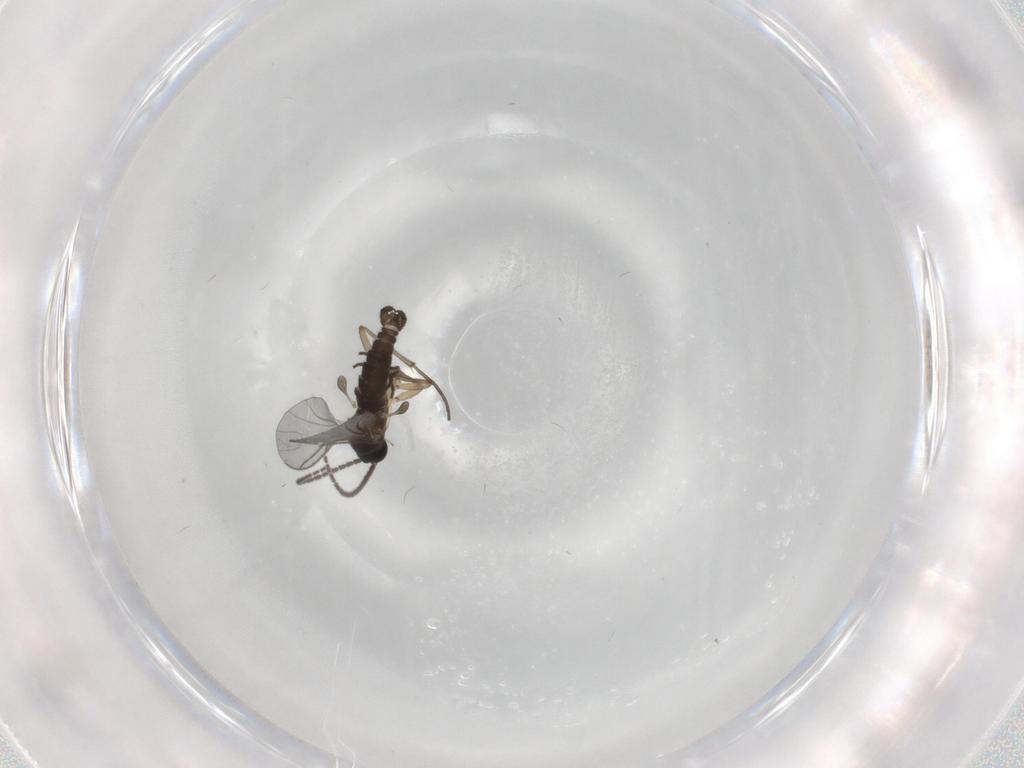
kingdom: Animalia
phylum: Arthropoda
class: Insecta
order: Diptera
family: Sciaridae
